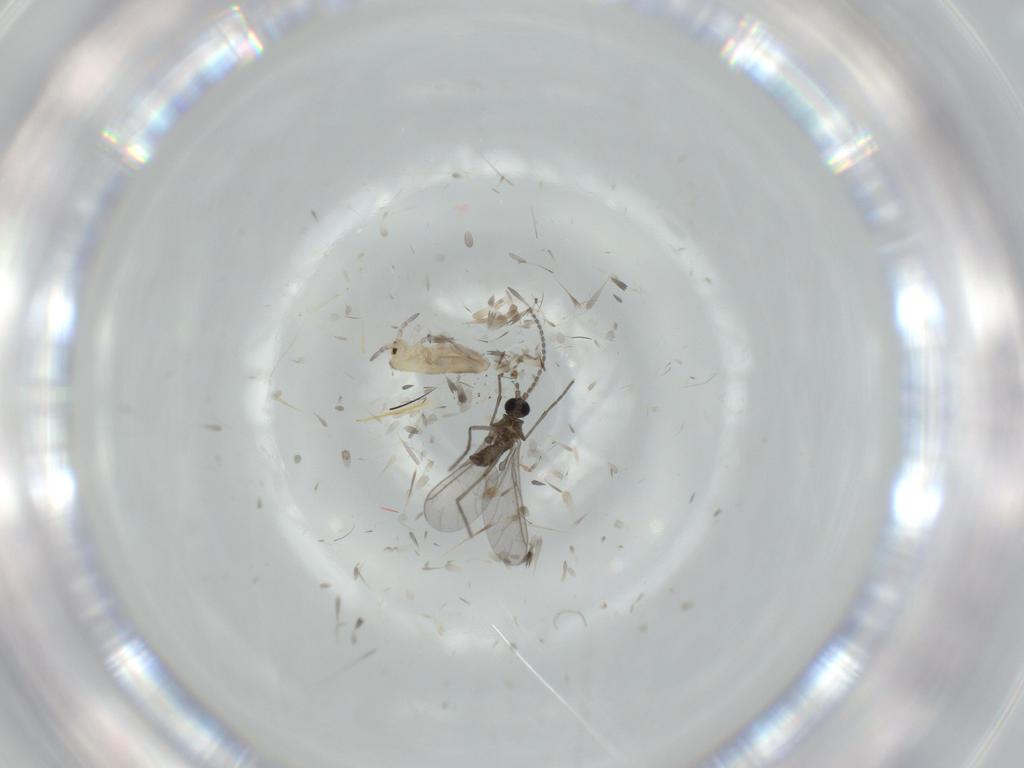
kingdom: Animalia
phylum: Arthropoda
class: Insecta
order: Diptera
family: Cecidomyiidae
